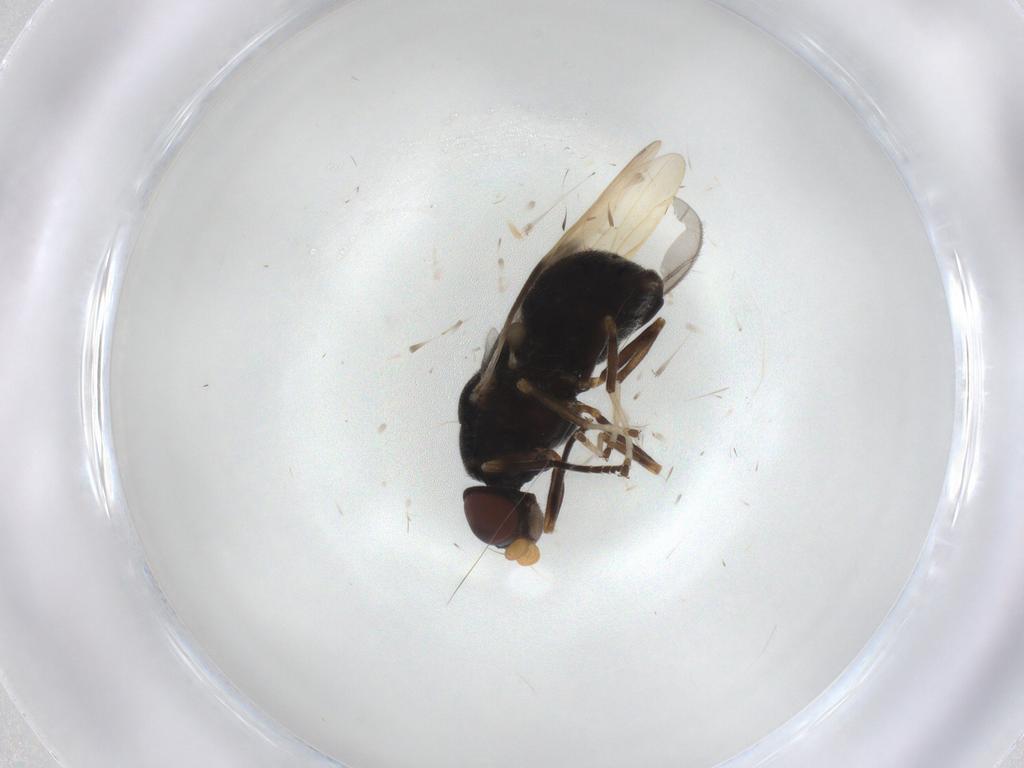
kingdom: Animalia
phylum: Arthropoda
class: Insecta
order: Diptera
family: Stratiomyidae
